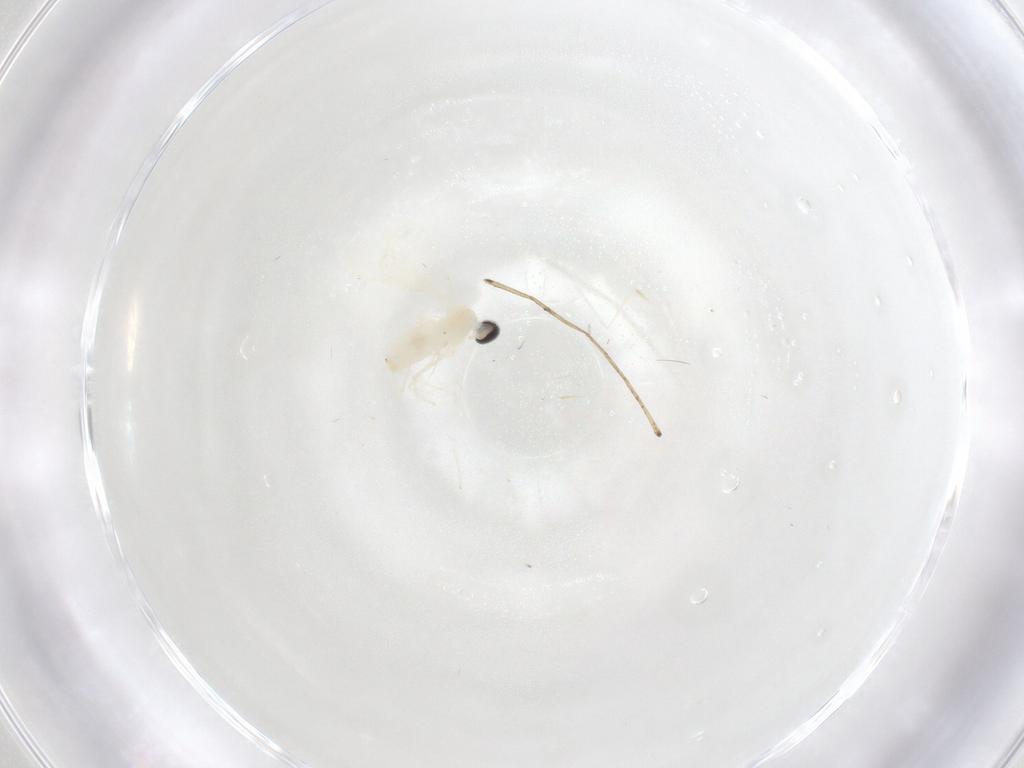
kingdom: Animalia
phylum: Arthropoda
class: Insecta
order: Diptera
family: Cecidomyiidae
